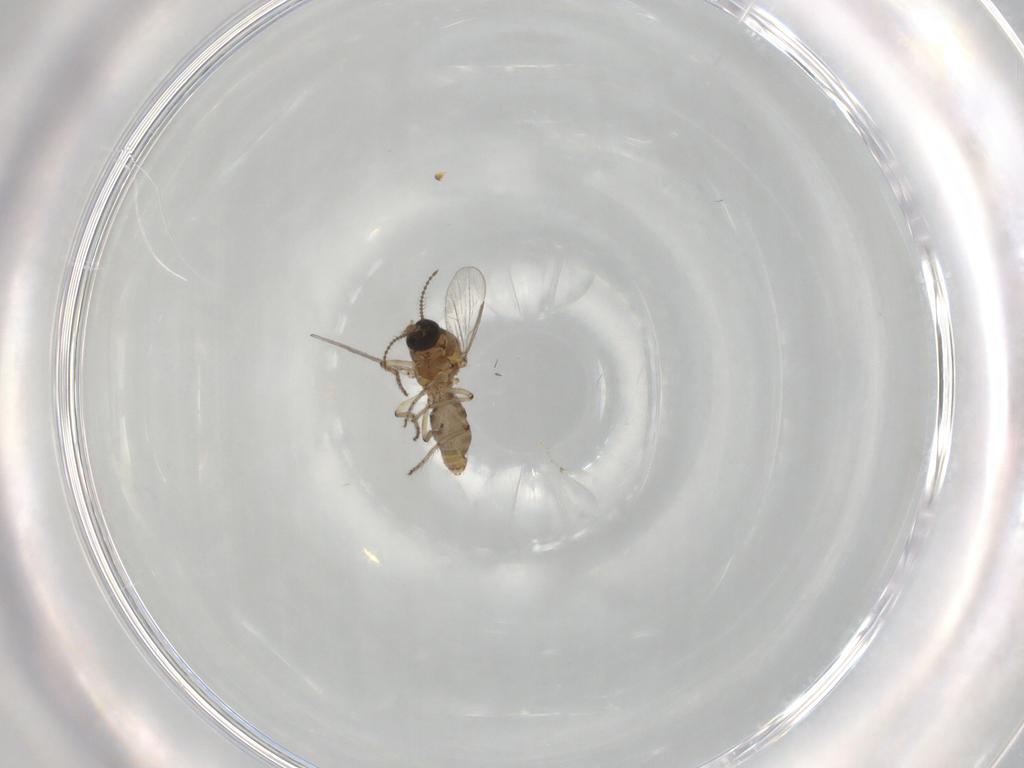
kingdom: Animalia
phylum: Arthropoda
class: Insecta
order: Diptera
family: Ceratopogonidae
